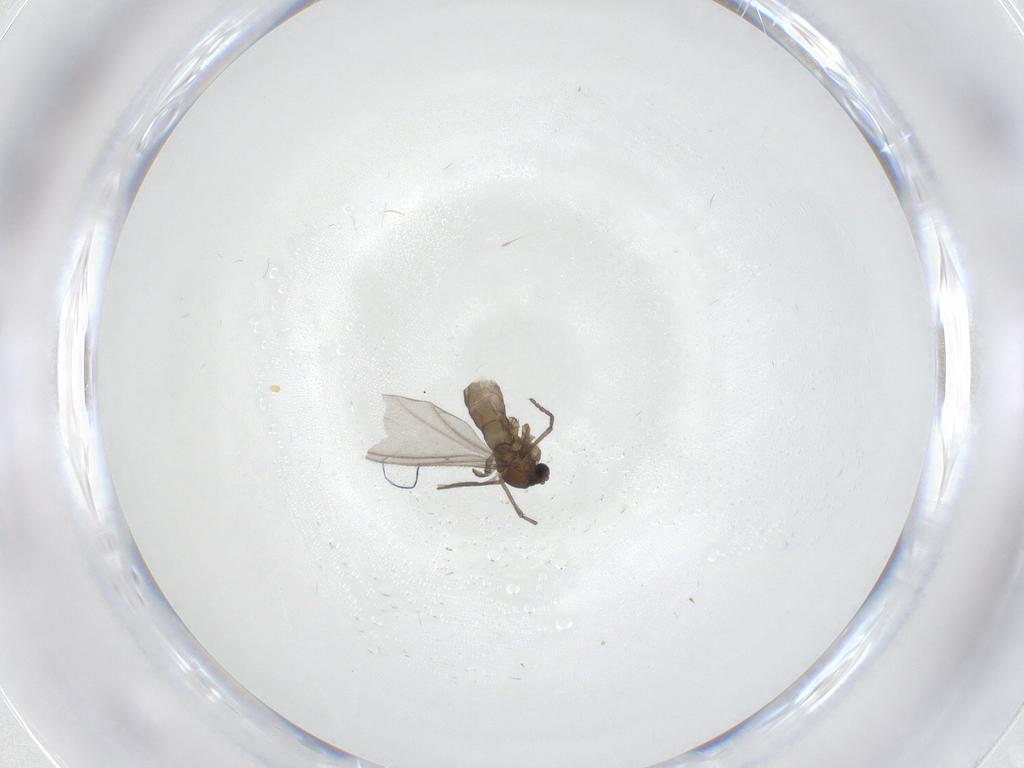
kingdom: Animalia
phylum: Arthropoda
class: Insecta
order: Diptera
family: Sciaridae
